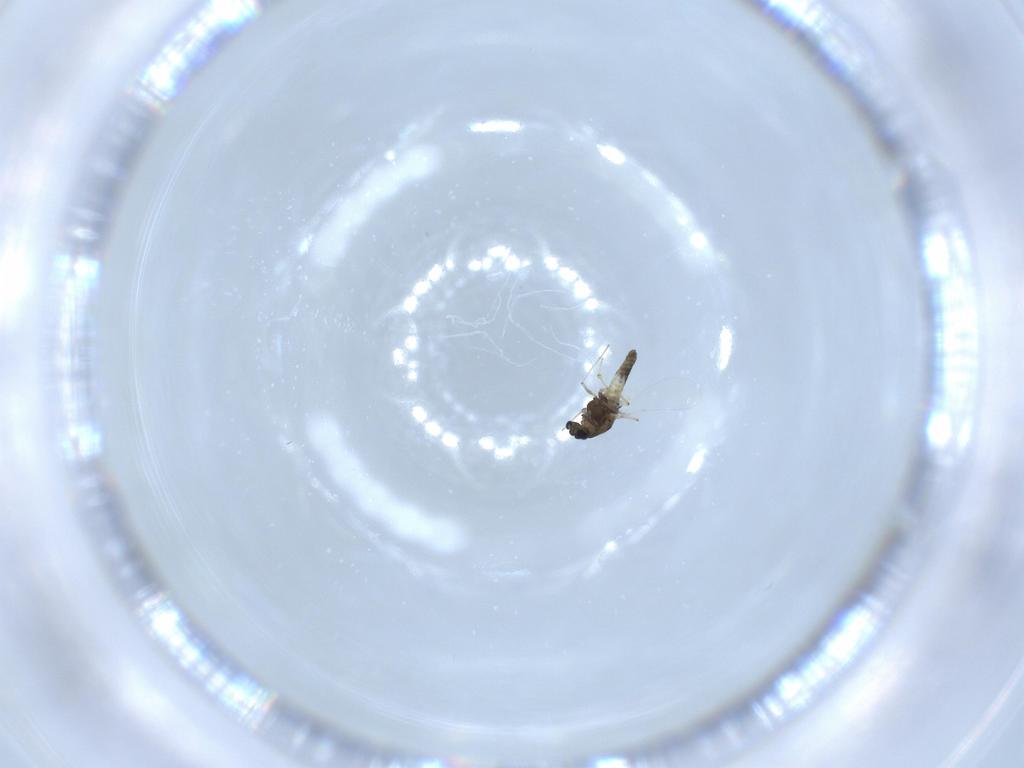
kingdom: Animalia
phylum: Arthropoda
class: Insecta
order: Diptera
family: Chironomidae
